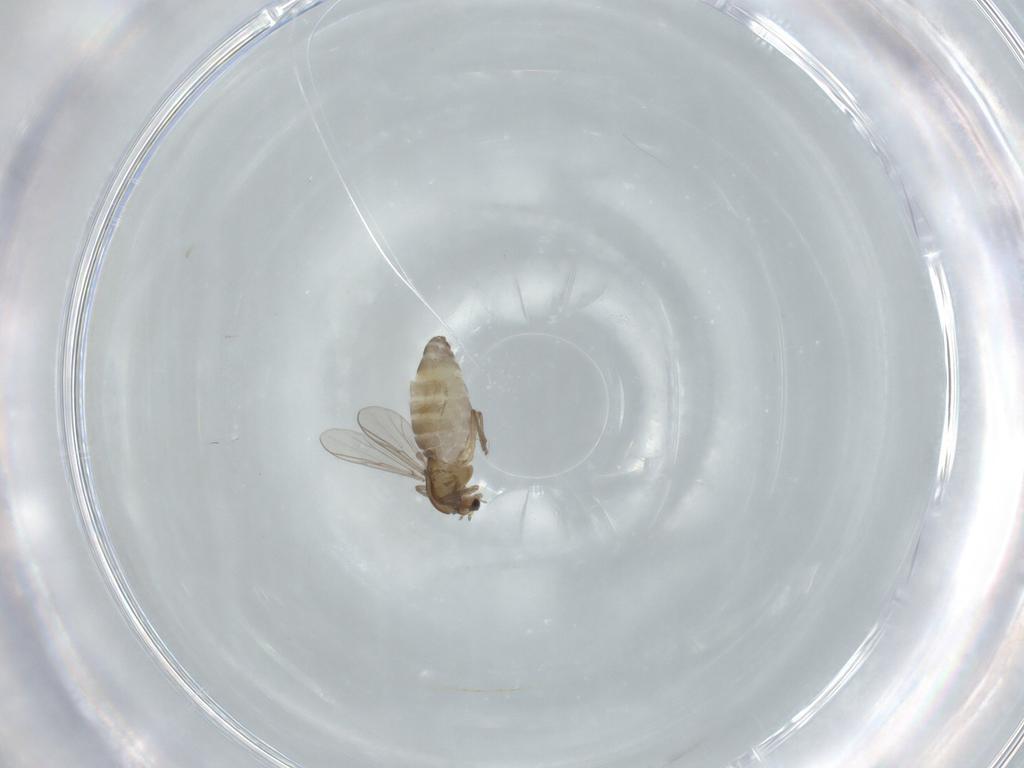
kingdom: Animalia
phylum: Arthropoda
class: Insecta
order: Diptera
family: Chironomidae
